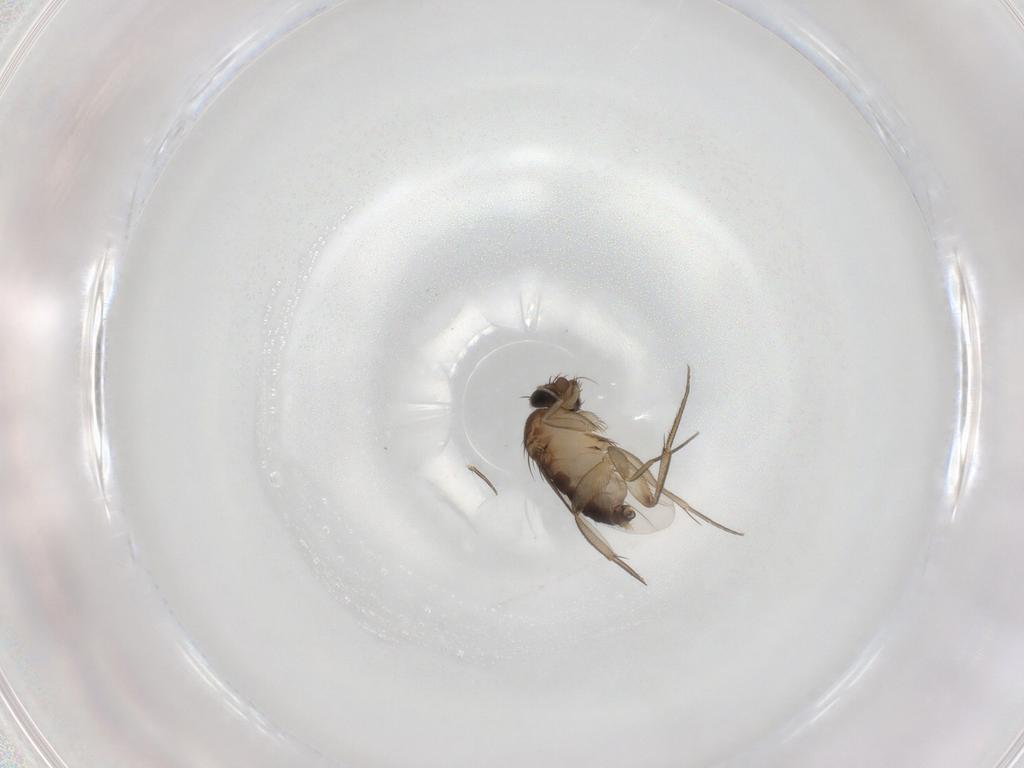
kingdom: Animalia
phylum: Arthropoda
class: Insecta
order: Diptera
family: Phoridae
